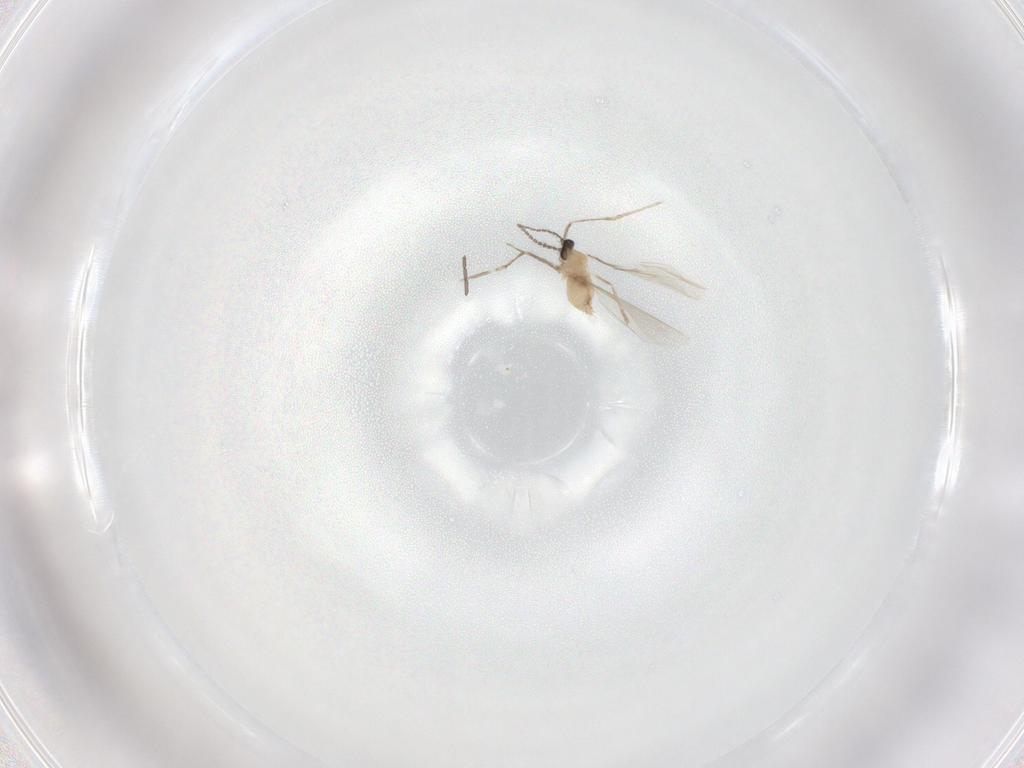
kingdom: Animalia
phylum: Arthropoda
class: Insecta
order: Diptera
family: Cecidomyiidae
